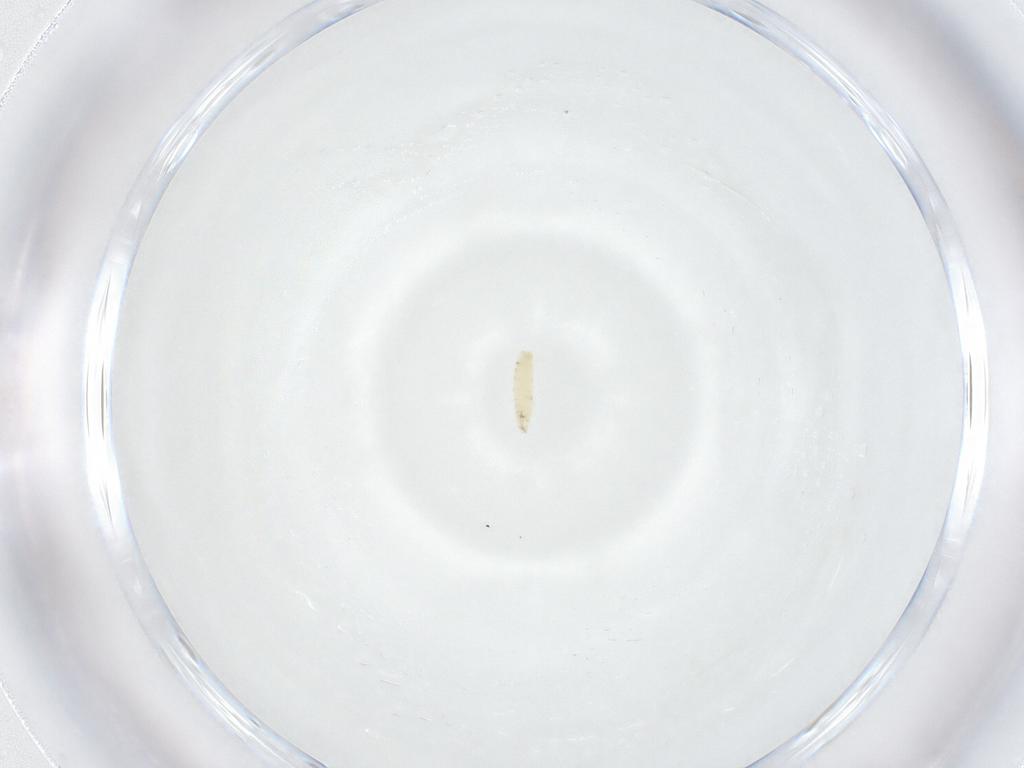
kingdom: Animalia
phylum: Arthropoda
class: Insecta
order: Diptera
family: Sarcophagidae
